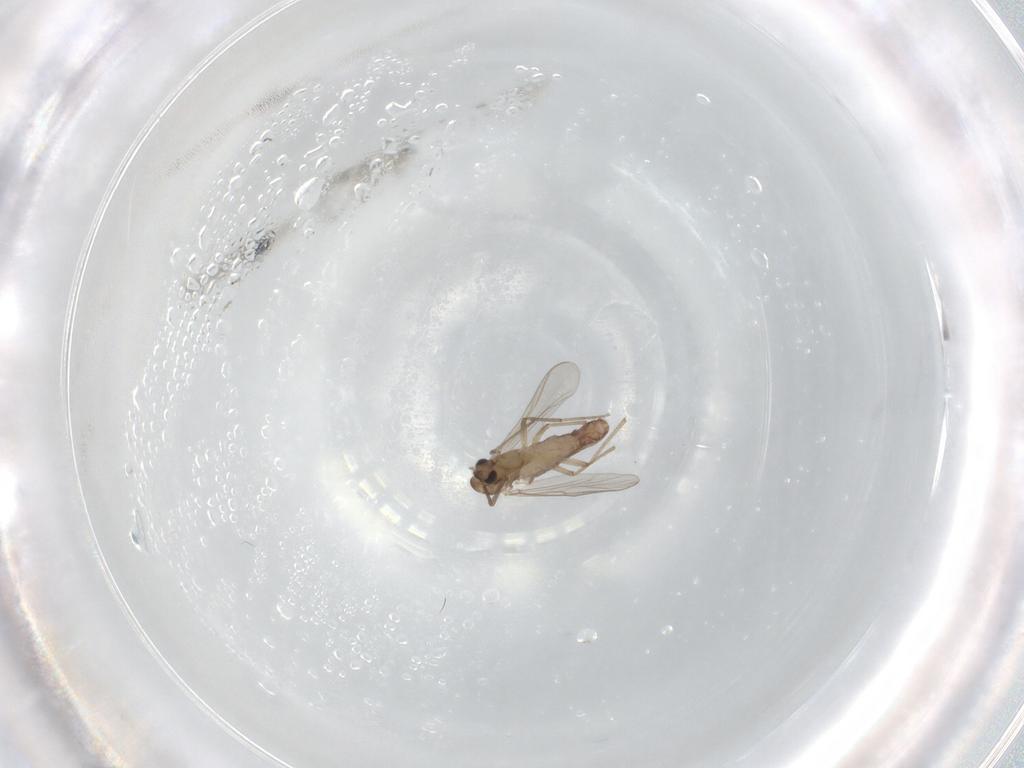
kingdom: Animalia
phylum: Arthropoda
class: Insecta
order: Diptera
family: Chironomidae
